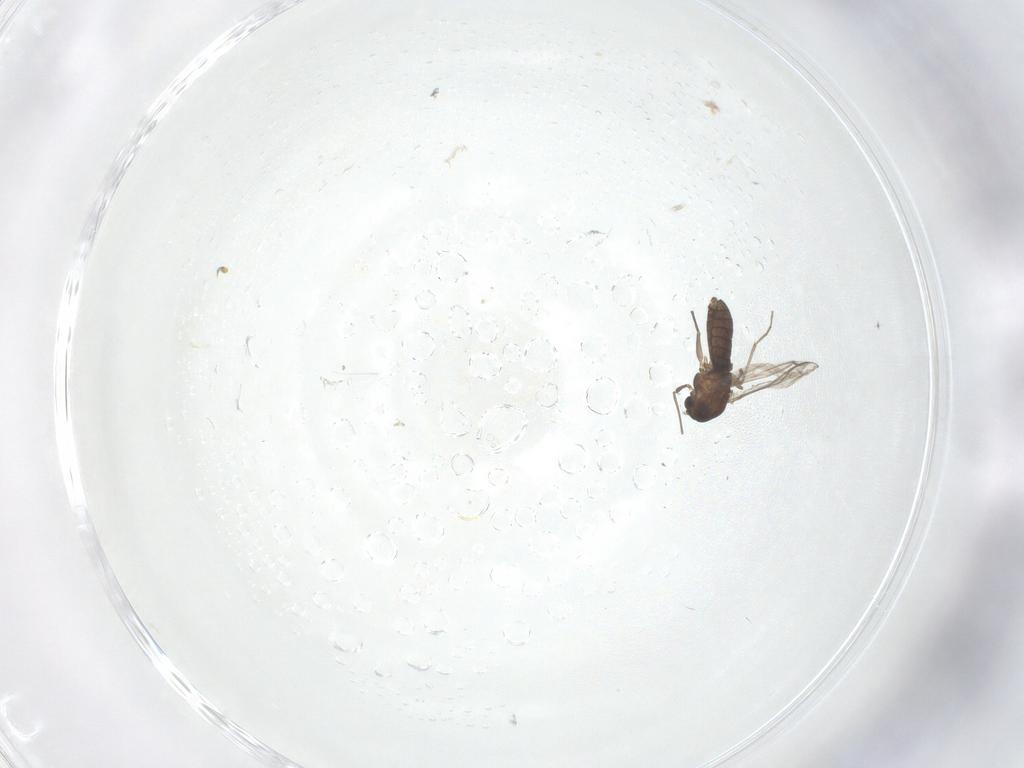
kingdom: Animalia
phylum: Arthropoda
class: Insecta
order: Diptera
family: Chironomidae
